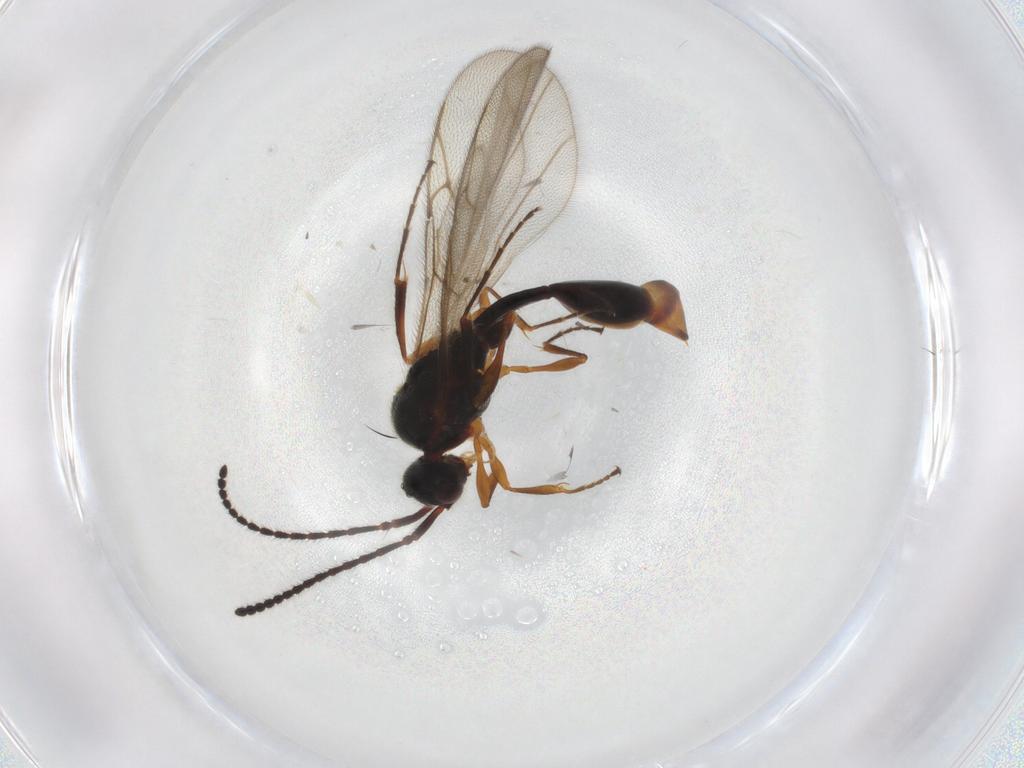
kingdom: Animalia
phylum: Arthropoda
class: Insecta
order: Hymenoptera
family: Diapriidae
